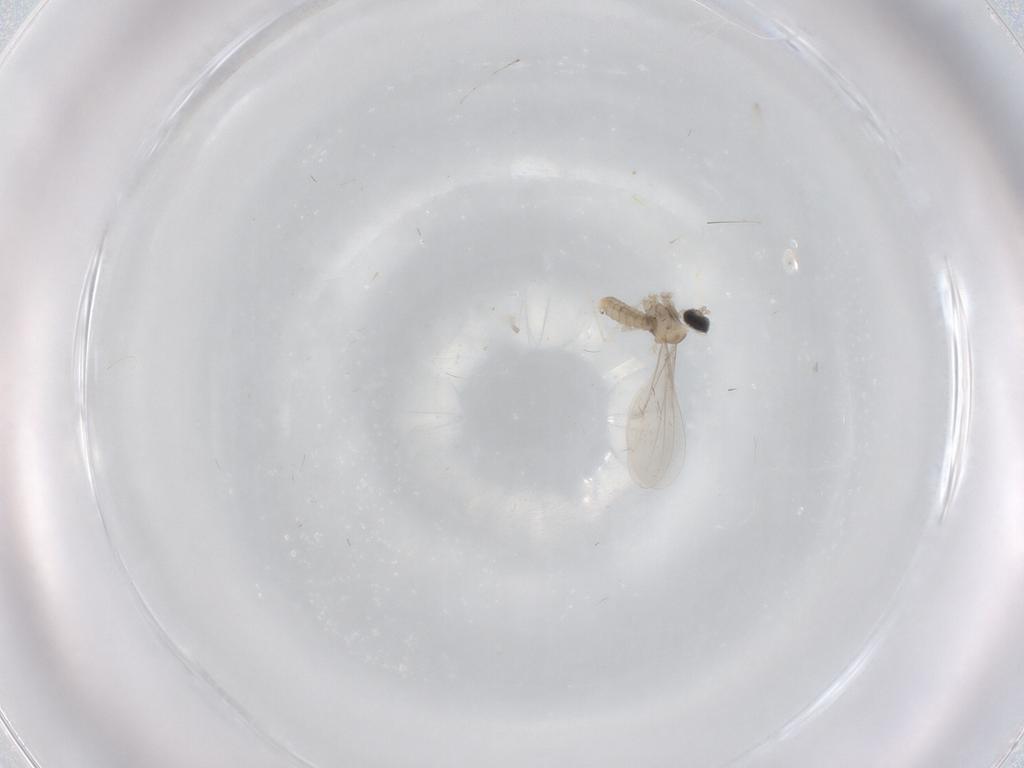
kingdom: Animalia
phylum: Arthropoda
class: Insecta
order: Diptera
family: Cecidomyiidae
